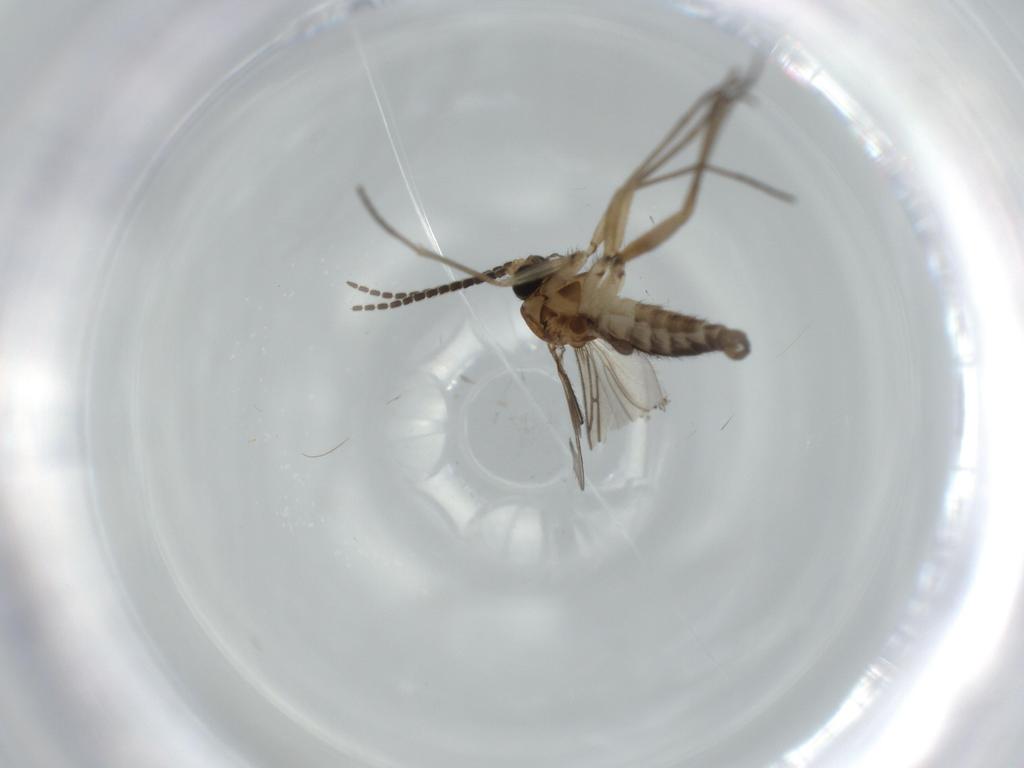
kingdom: Animalia
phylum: Arthropoda
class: Insecta
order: Diptera
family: Sciaridae
